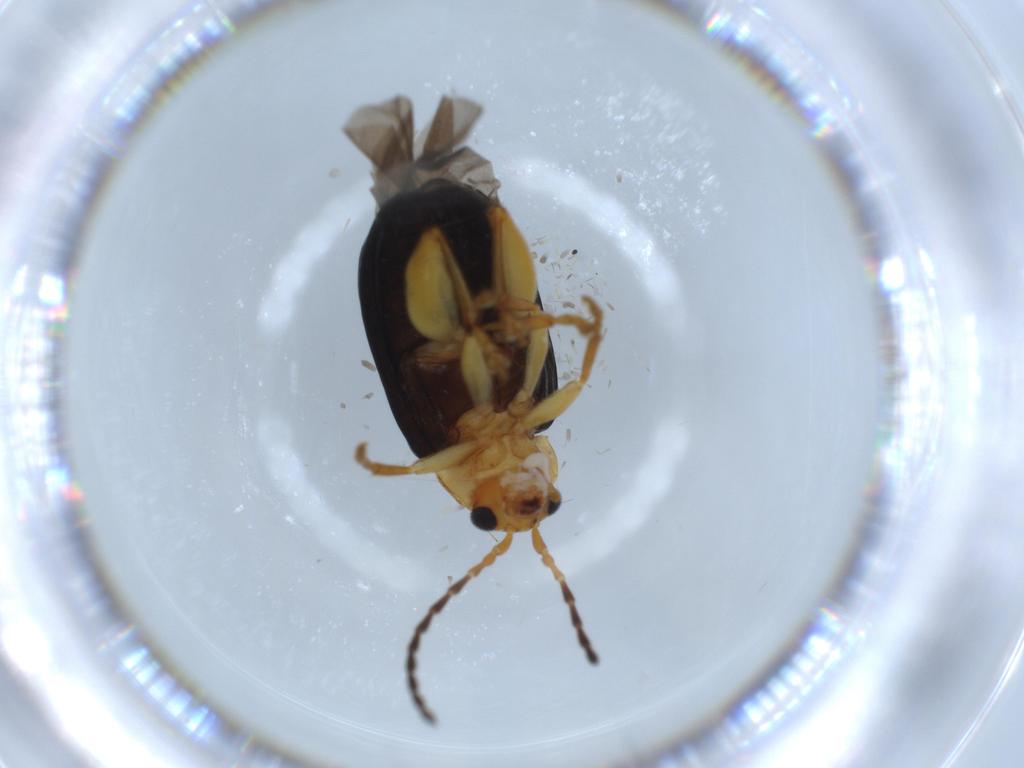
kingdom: Animalia
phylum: Arthropoda
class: Insecta
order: Coleoptera
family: Chrysomelidae
